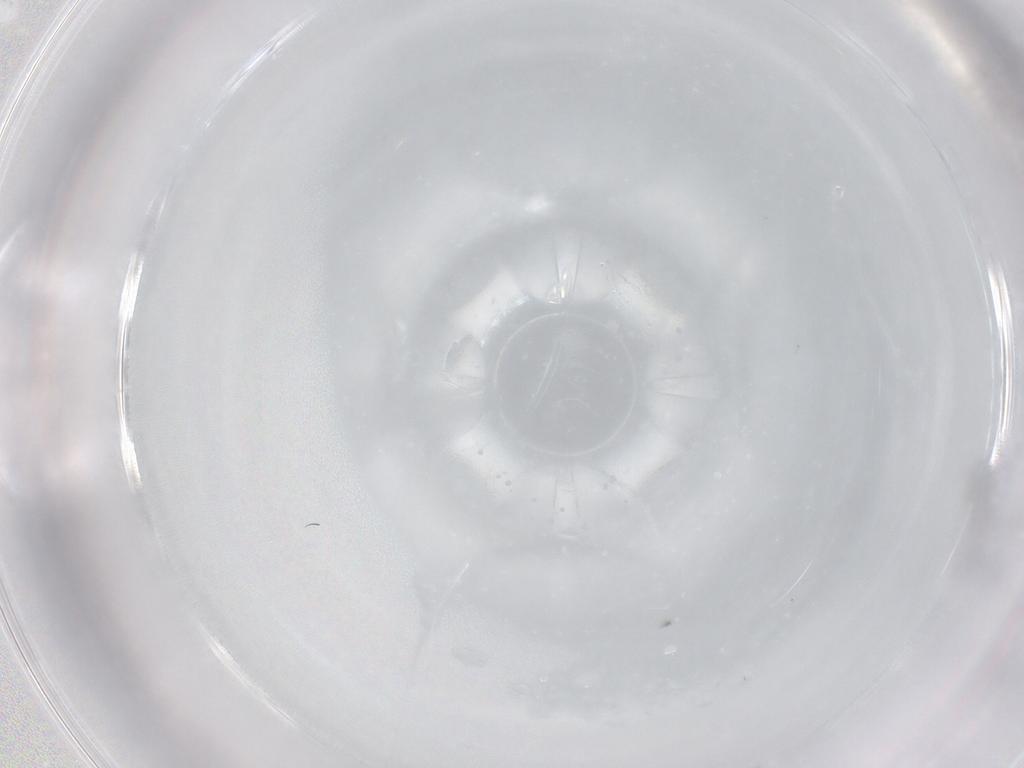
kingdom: Animalia
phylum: Arthropoda
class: Collembola
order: Entomobryomorpha
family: Entomobryidae
